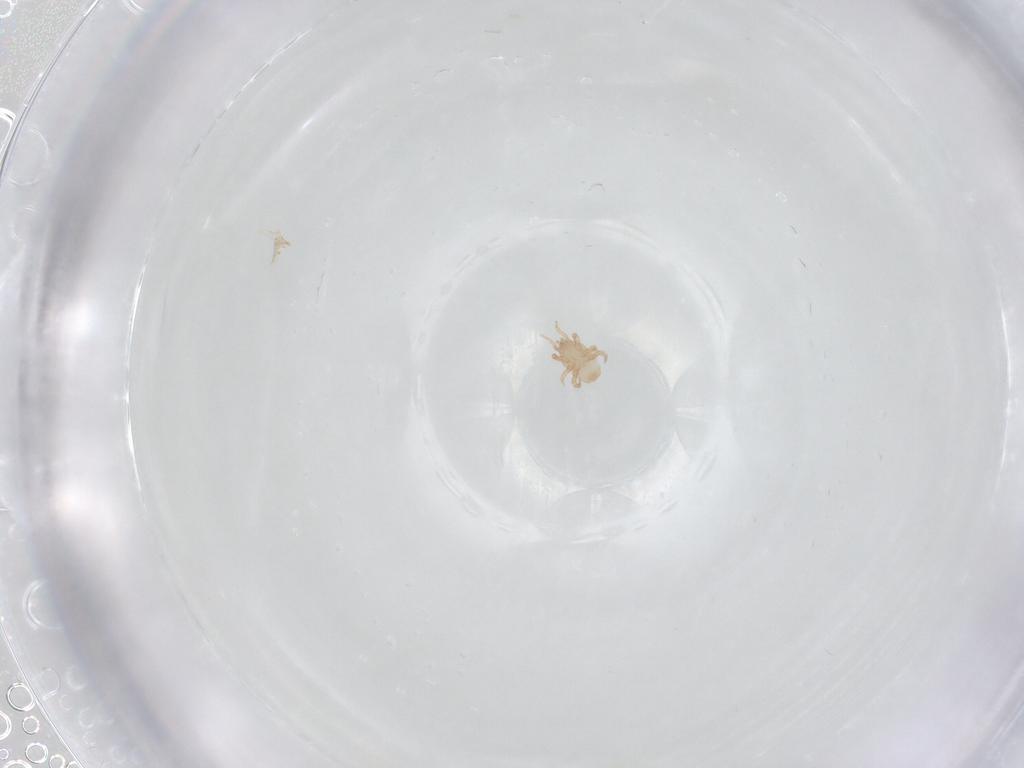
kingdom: Animalia
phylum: Arthropoda
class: Arachnida
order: Mesostigmata
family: Halolaelapidae
